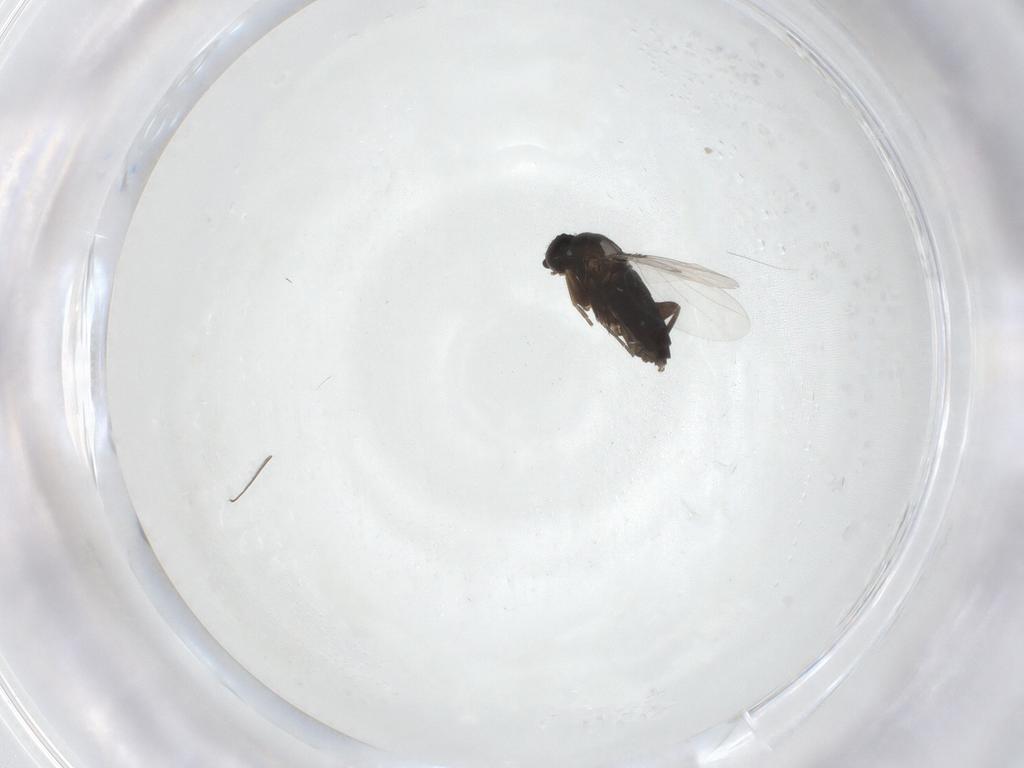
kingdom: Animalia
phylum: Arthropoda
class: Insecta
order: Diptera
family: Phoridae
